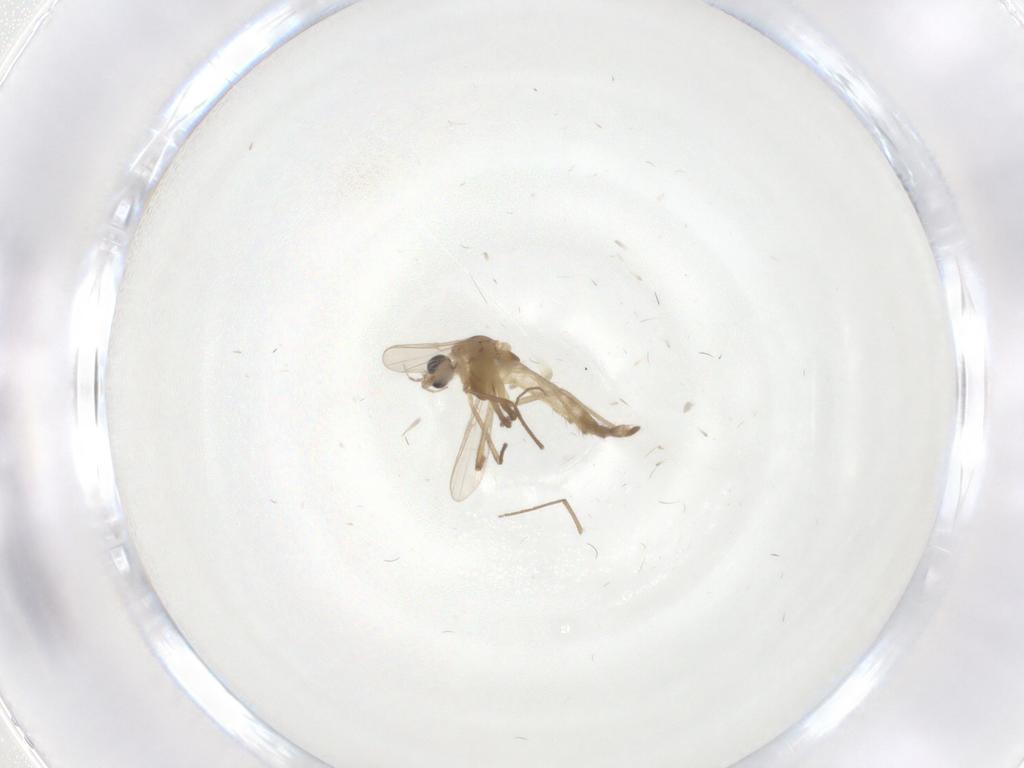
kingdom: Animalia
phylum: Arthropoda
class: Insecta
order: Diptera
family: Chironomidae
